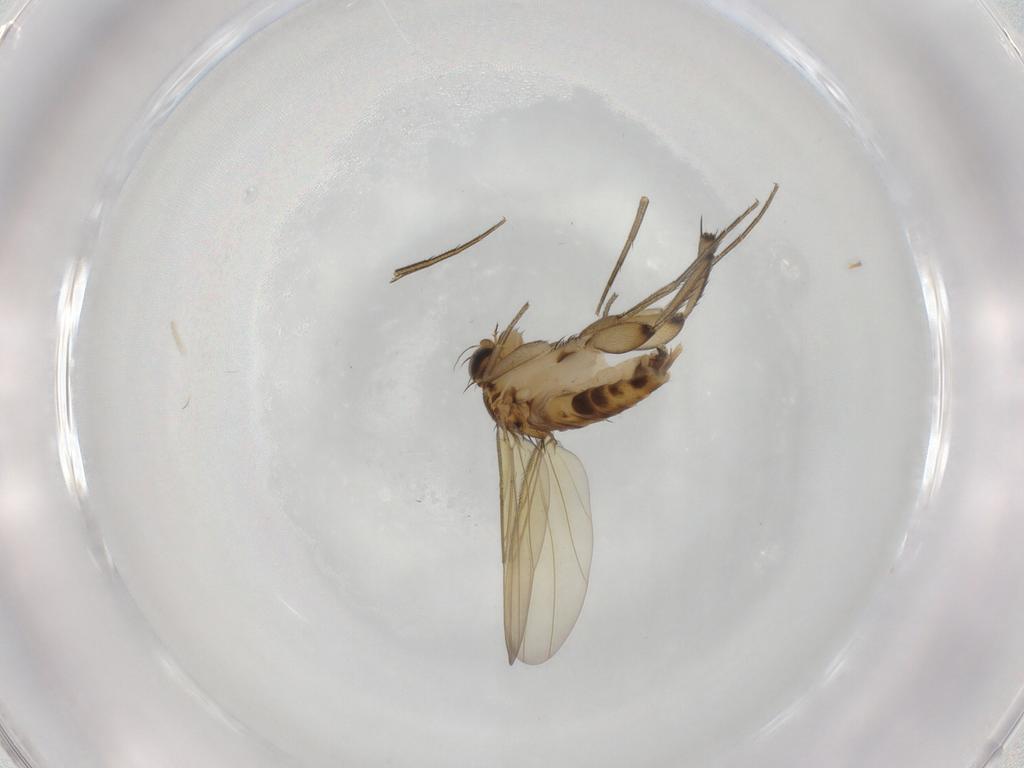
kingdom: Animalia
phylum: Arthropoda
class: Insecta
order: Diptera
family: Phoridae
